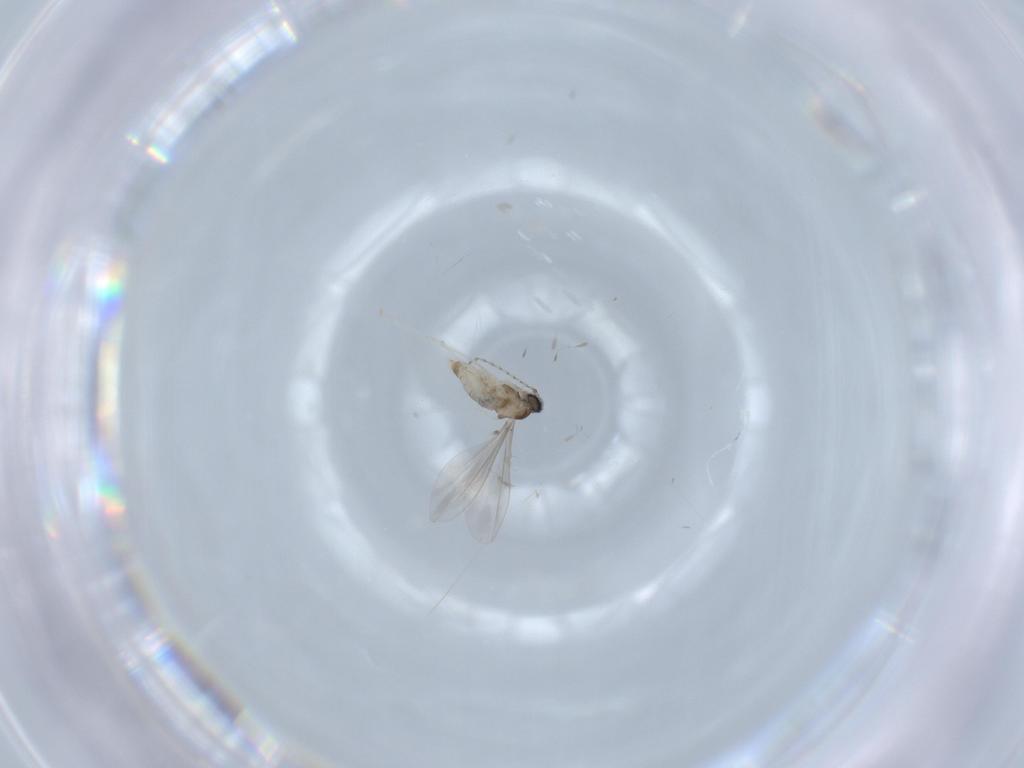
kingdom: Animalia
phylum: Arthropoda
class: Insecta
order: Diptera
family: Cecidomyiidae
